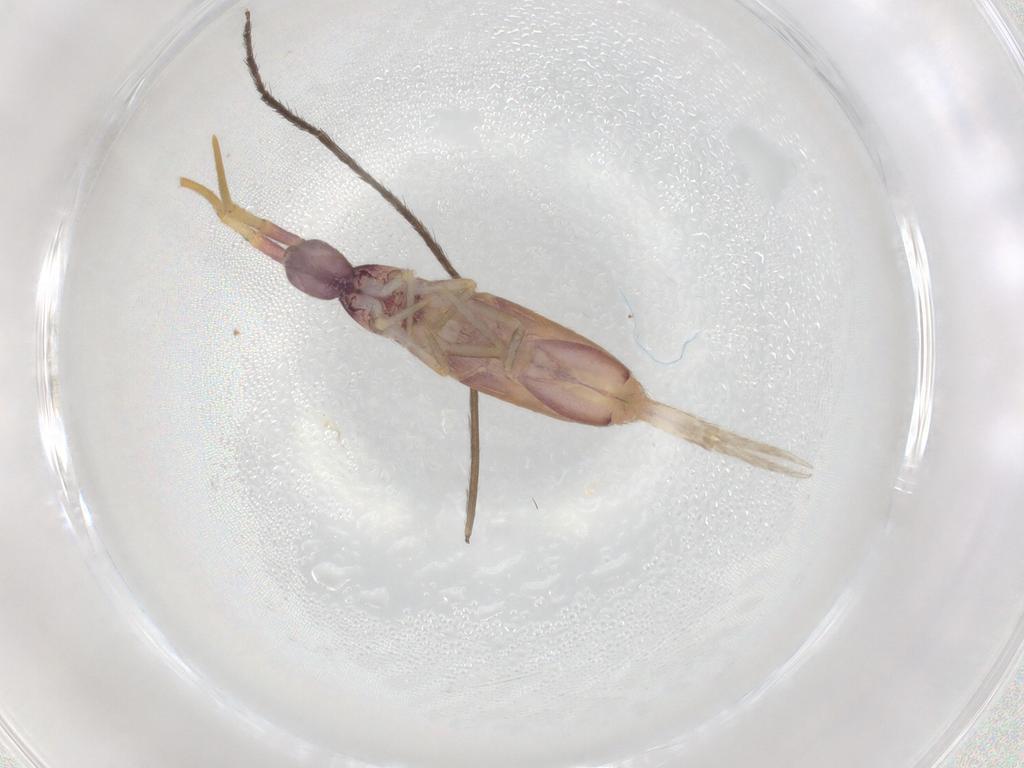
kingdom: Animalia
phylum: Arthropoda
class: Collembola
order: Entomobryomorpha
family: Entomobryidae
